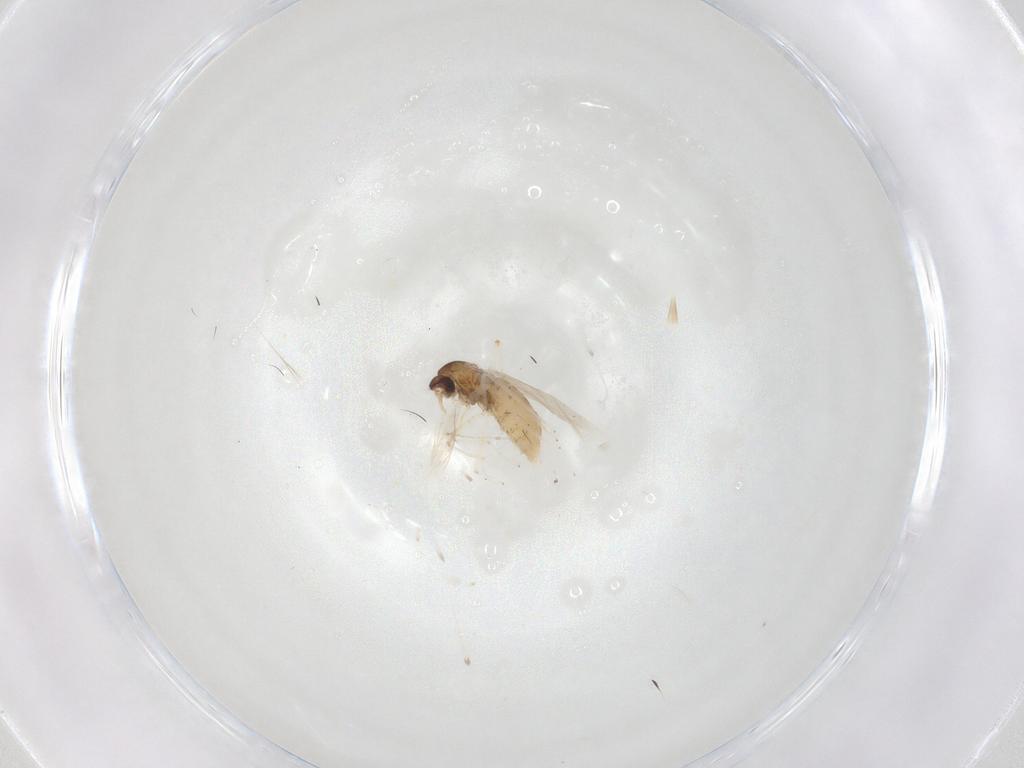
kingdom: Animalia
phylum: Arthropoda
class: Insecta
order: Diptera
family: Cecidomyiidae
